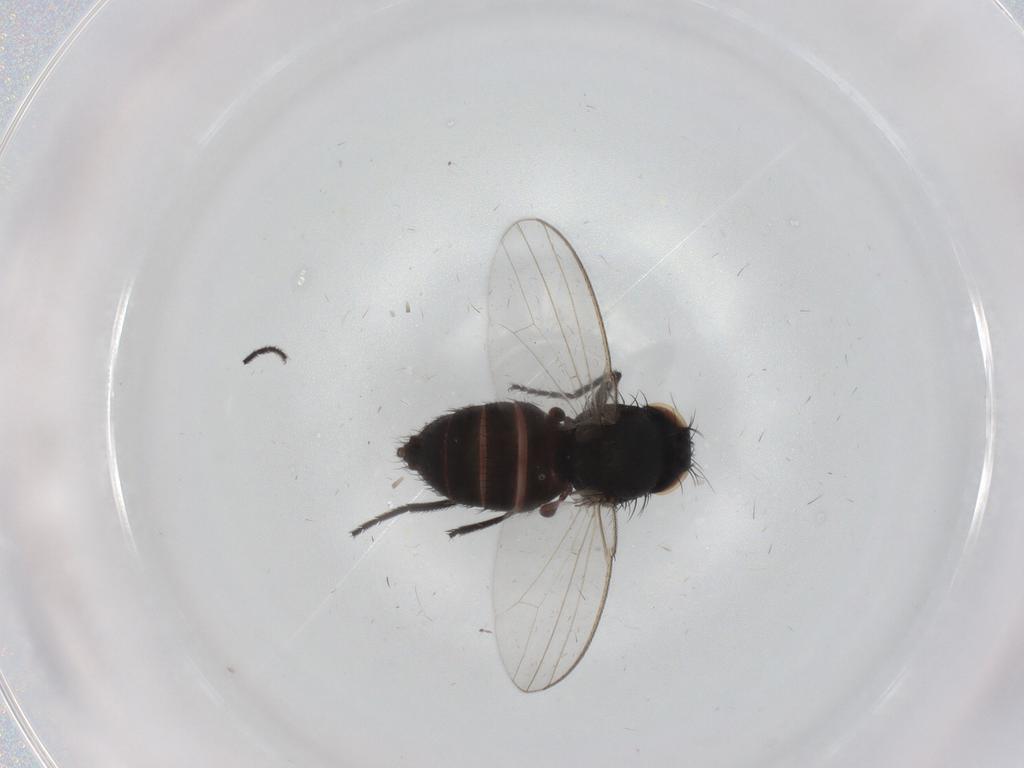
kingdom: Animalia
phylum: Arthropoda
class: Insecta
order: Diptera
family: Milichiidae
